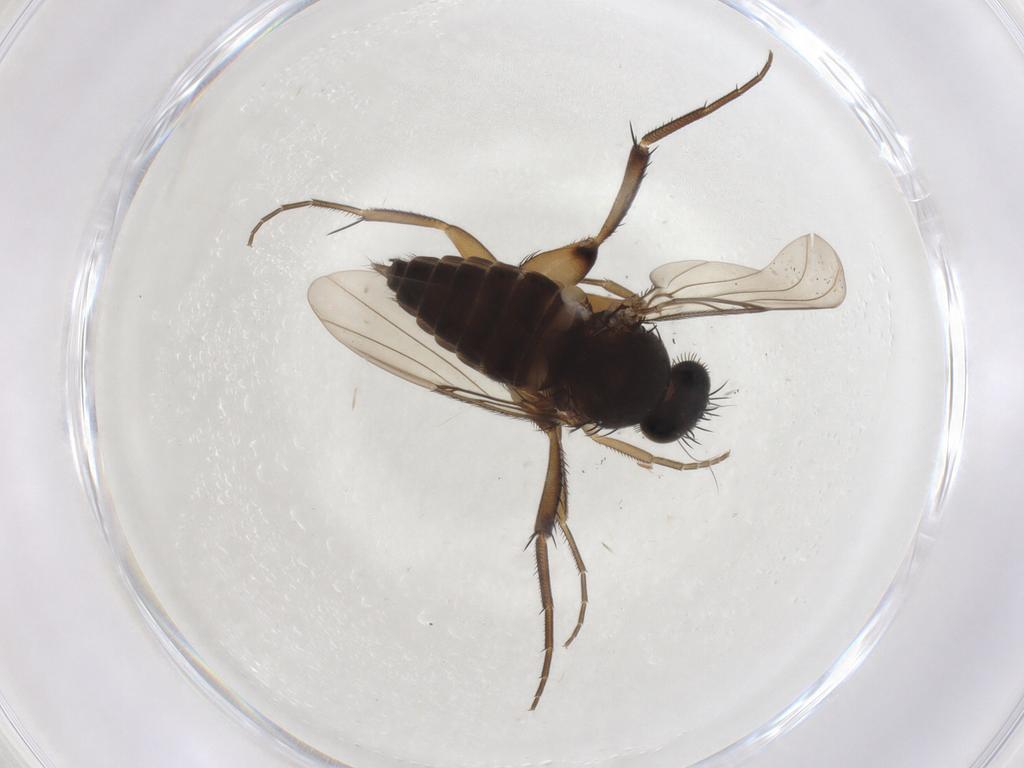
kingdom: Animalia
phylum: Arthropoda
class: Insecta
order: Diptera
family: Phoridae
